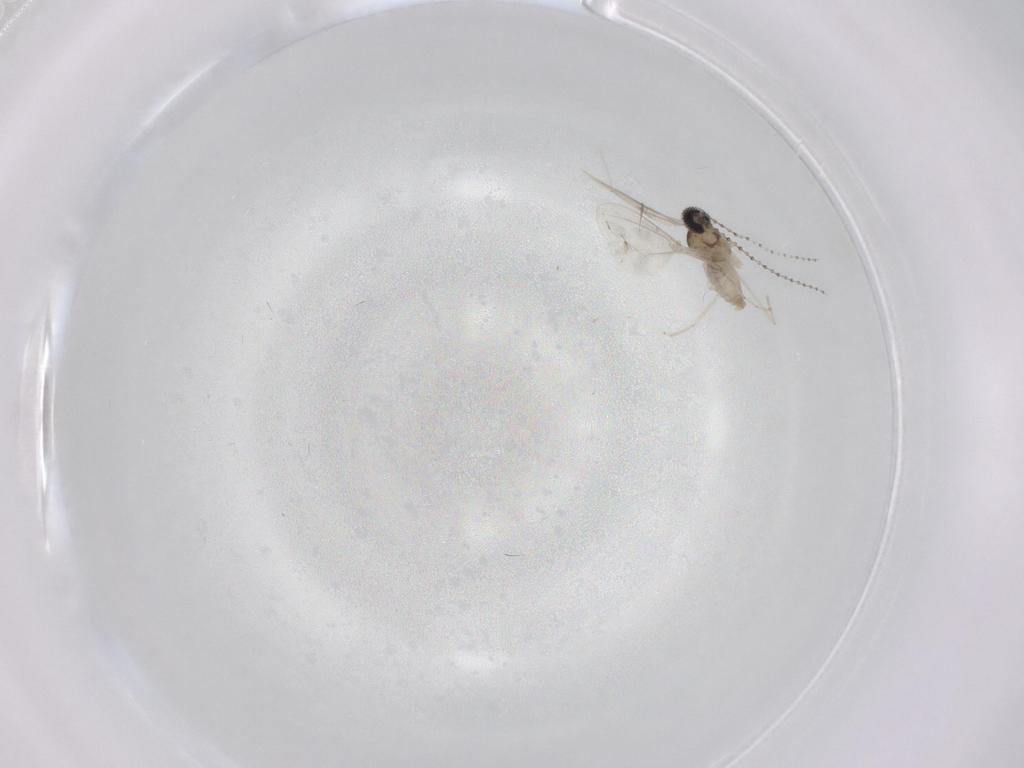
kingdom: Animalia
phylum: Arthropoda
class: Insecta
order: Diptera
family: Cecidomyiidae
